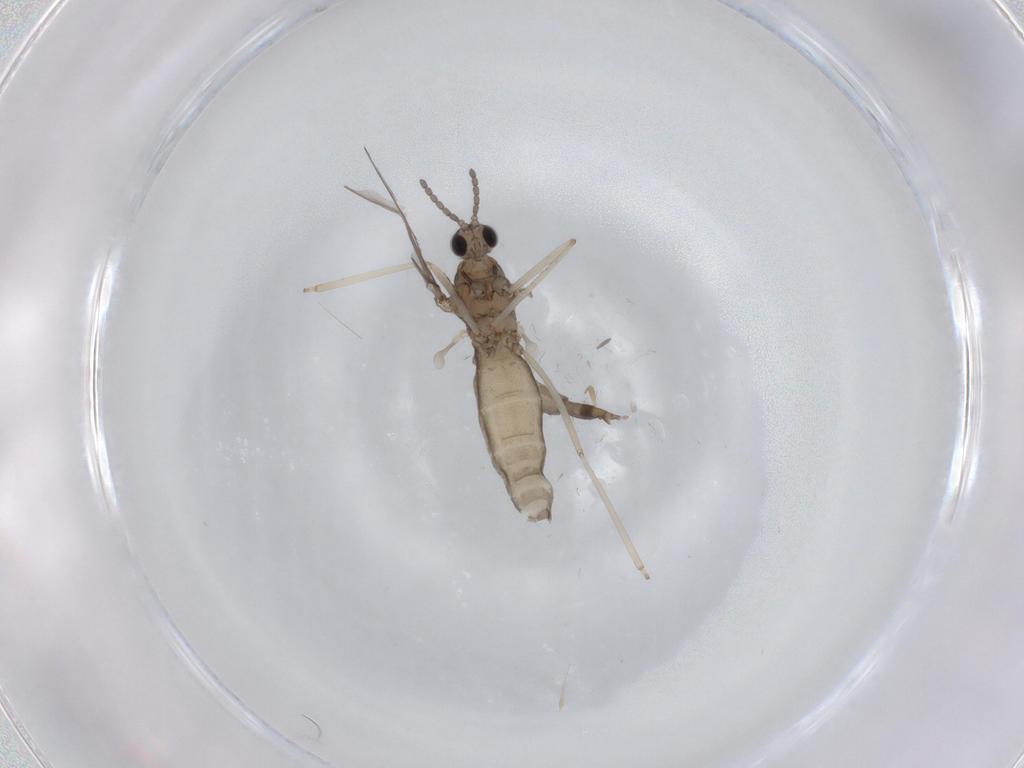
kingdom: Animalia
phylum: Arthropoda
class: Insecta
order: Diptera
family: Cecidomyiidae
